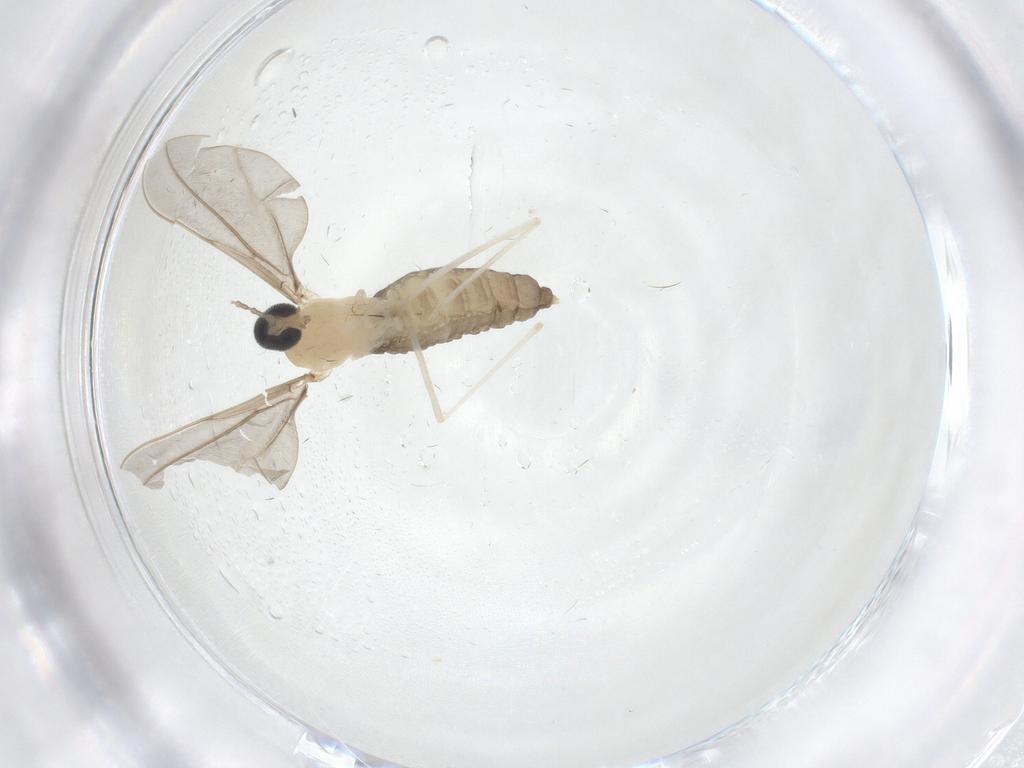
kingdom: Animalia
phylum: Arthropoda
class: Insecta
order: Diptera
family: Cecidomyiidae
